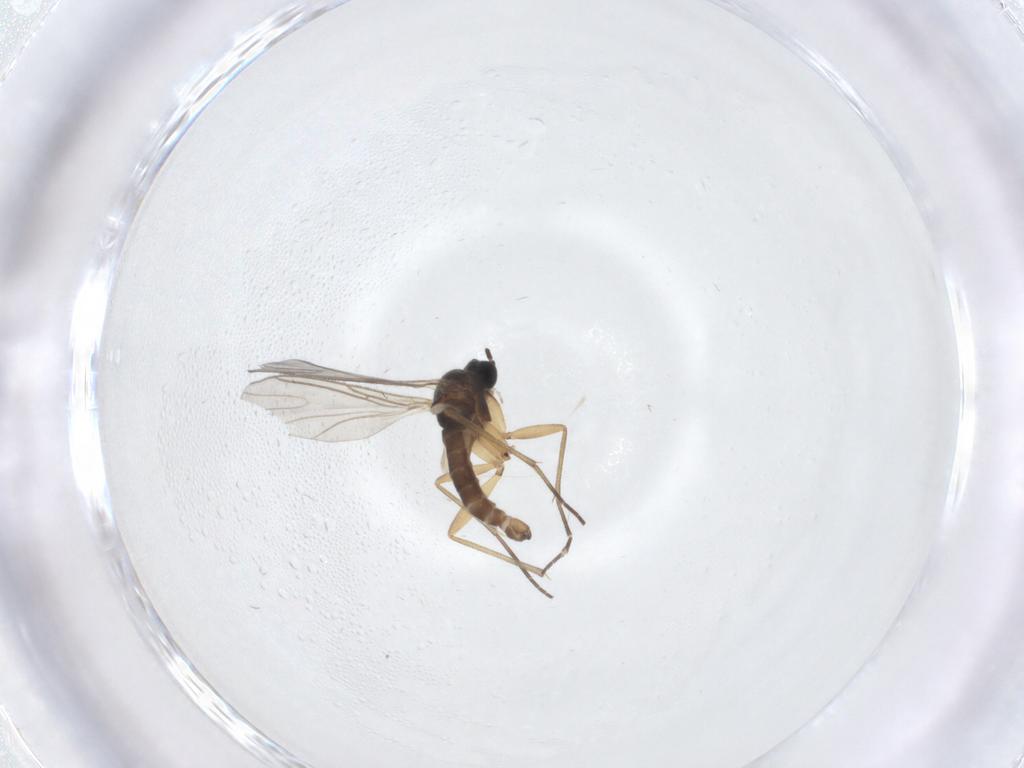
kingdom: Animalia
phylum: Arthropoda
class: Insecta
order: Diptera
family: Sciaridae
